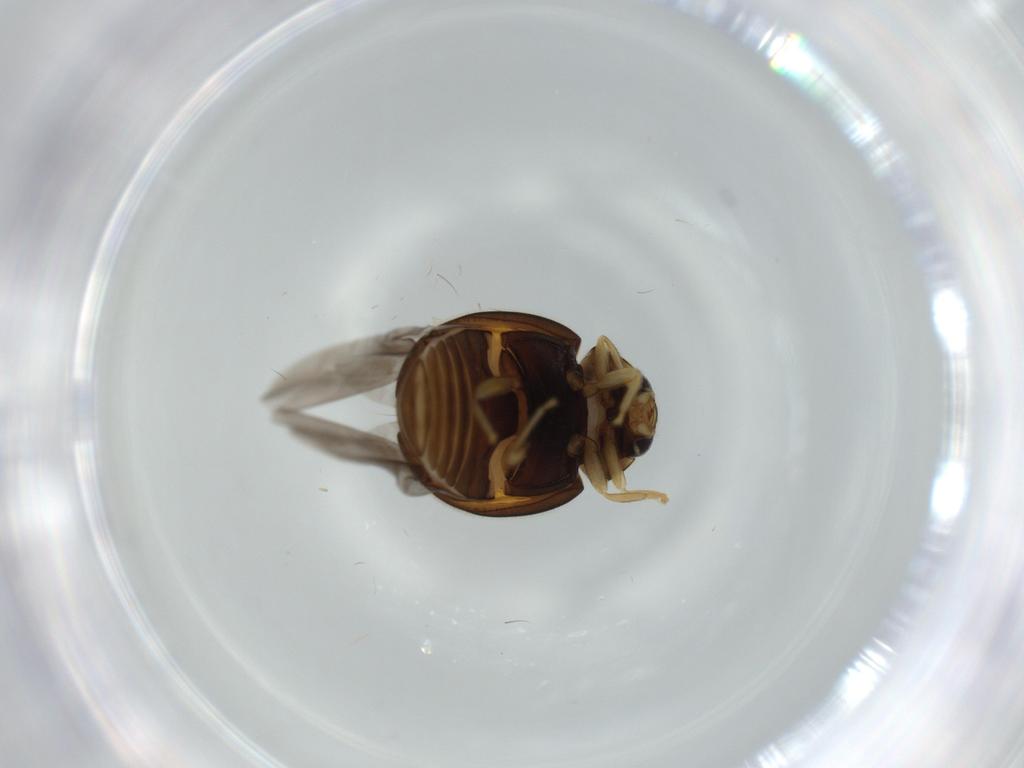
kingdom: Animalia
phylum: Arthropoda
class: Insecta
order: Coleoptera
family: Coccinellidae
